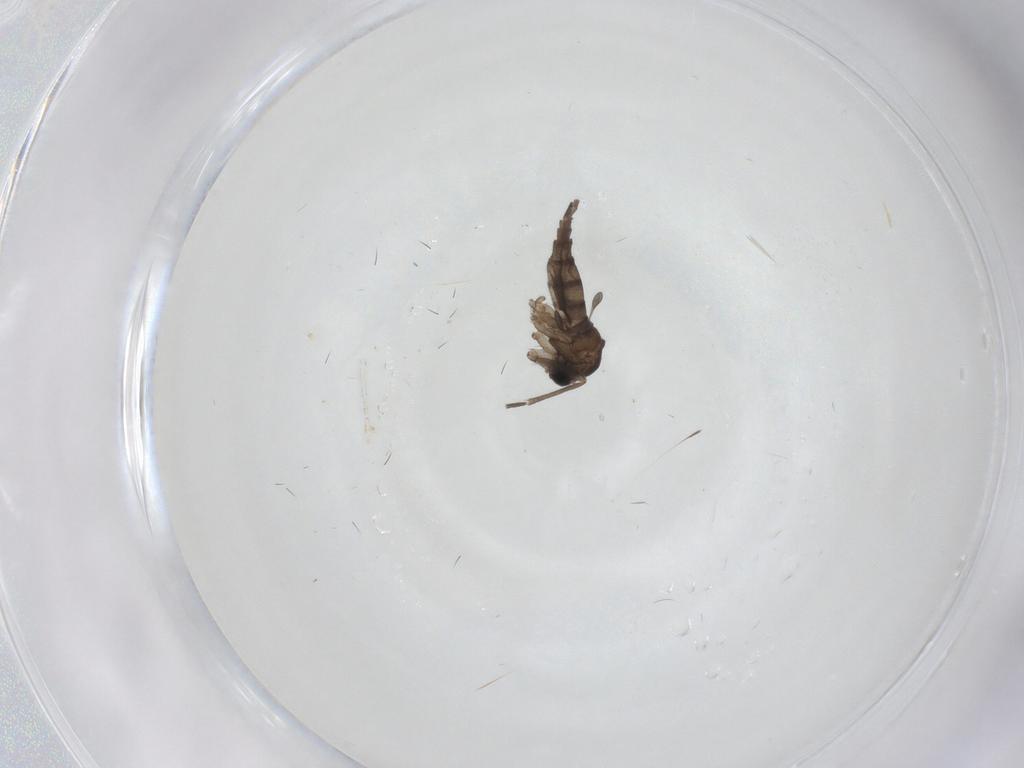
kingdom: Animalia
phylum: Arthropoda
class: Insecta
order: Diptera
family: Sciaridae
